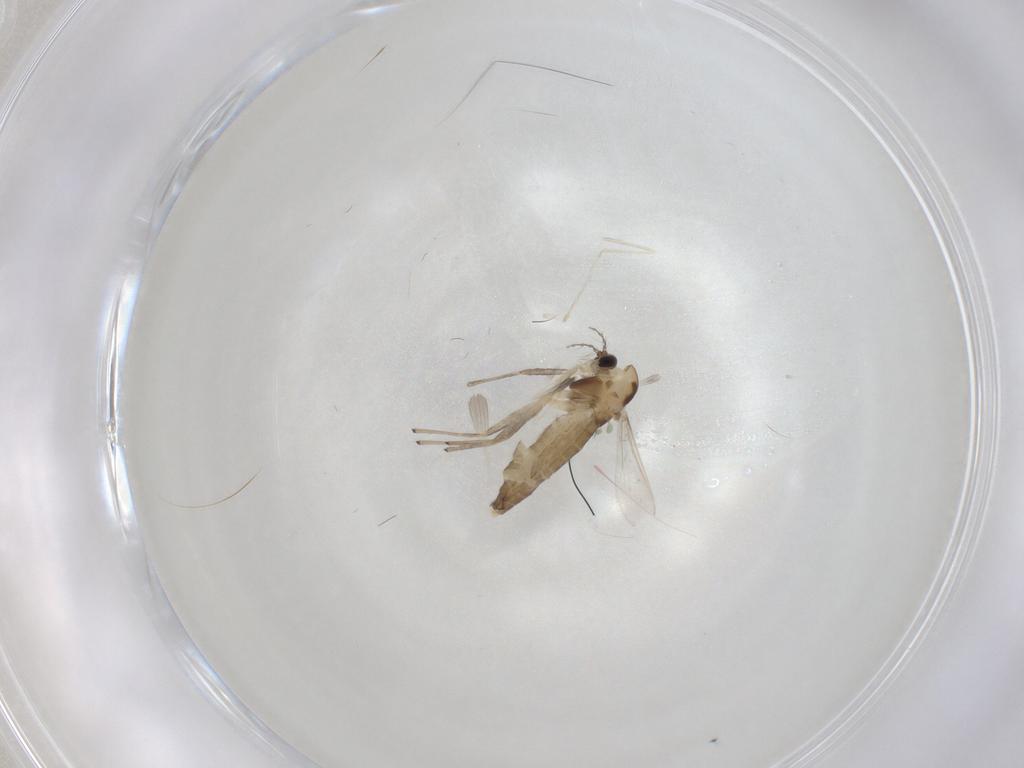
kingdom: Animalia
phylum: Arthropoda
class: Insecta
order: Diptera
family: Chironomidae
